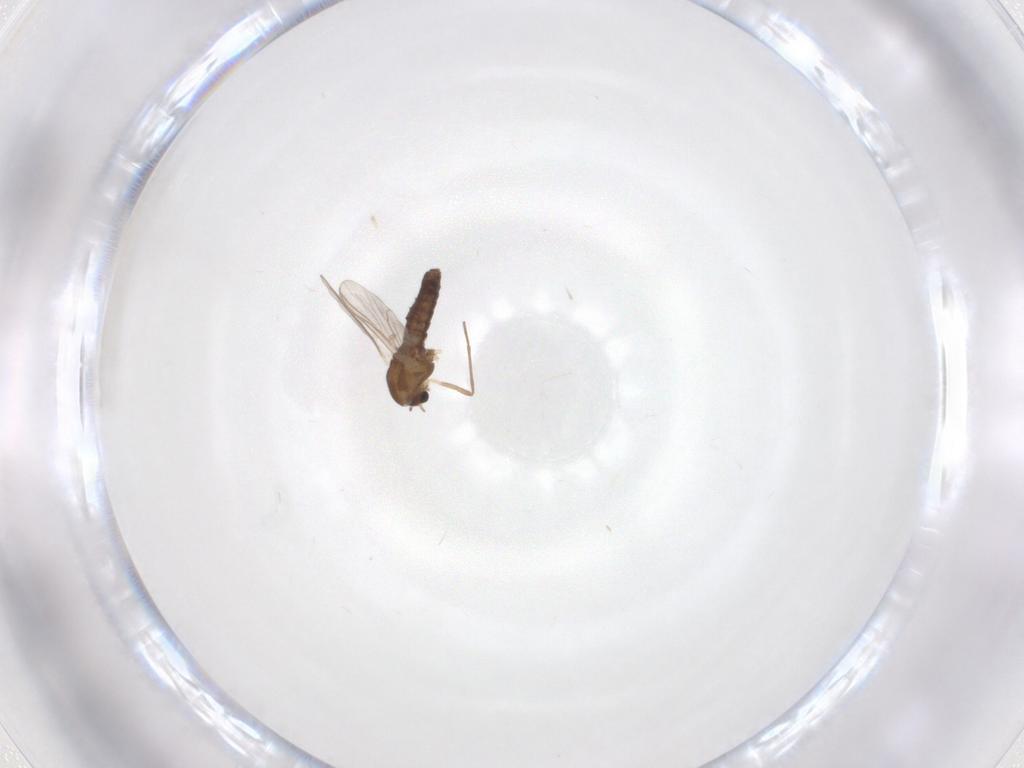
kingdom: Animalia
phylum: Arthropoda
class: Insecta
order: Diptera
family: Chironomidae
